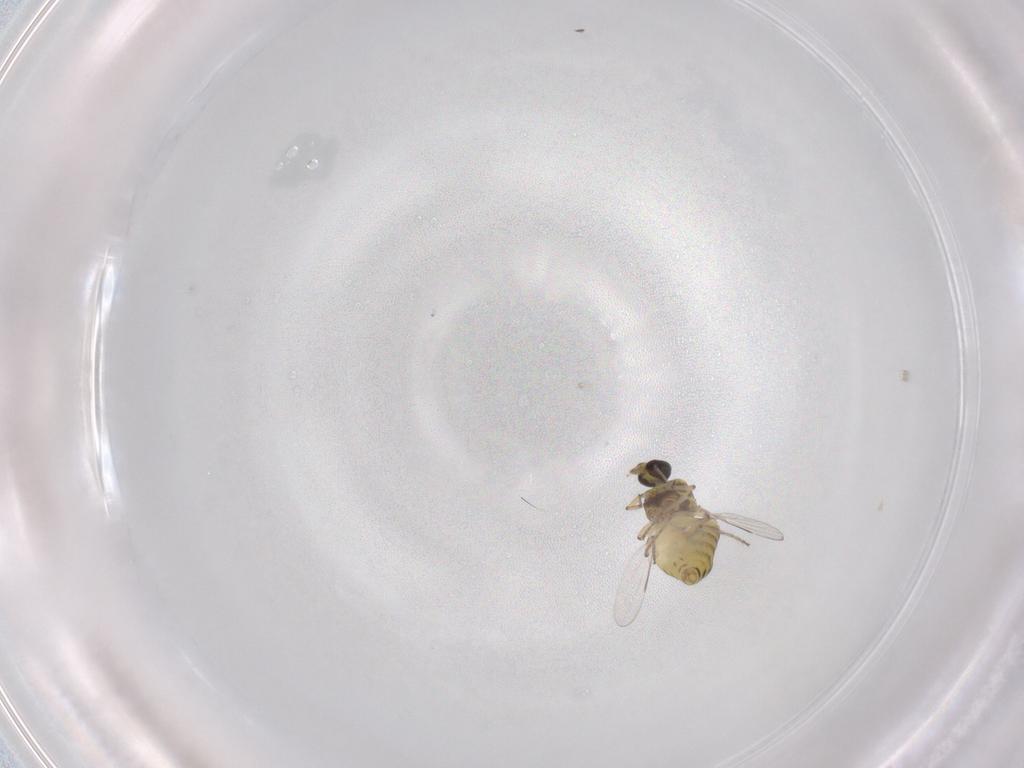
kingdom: Animalia
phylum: Arthropoda
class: Insecta
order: Diptera
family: Ceratopogonidae
